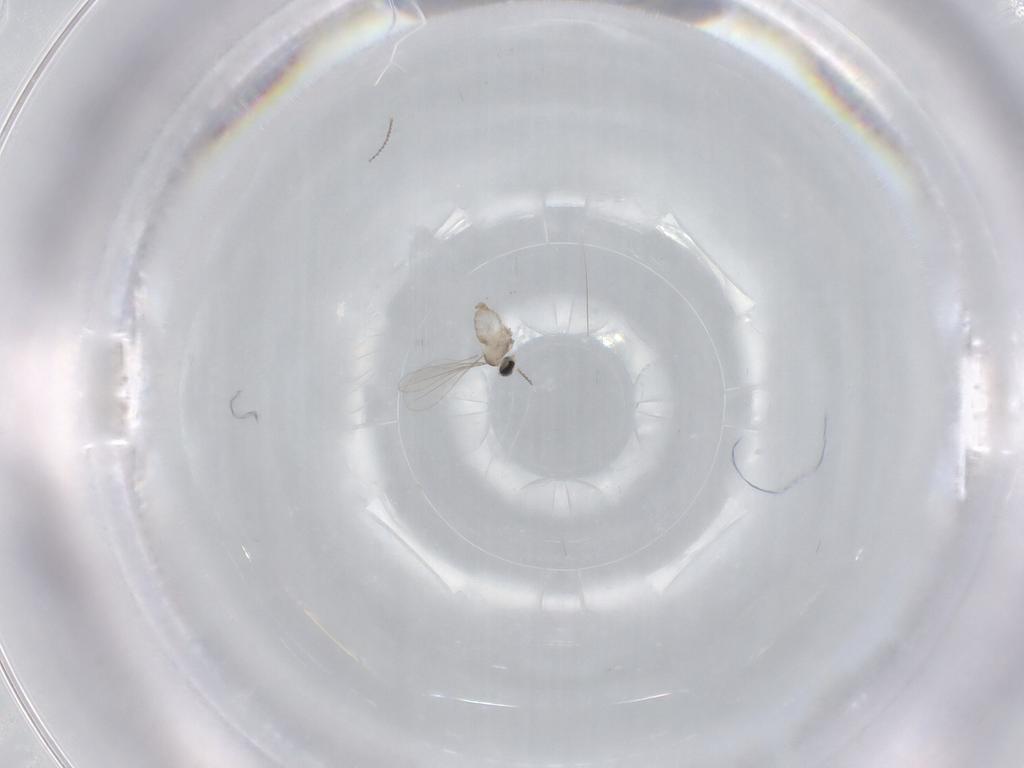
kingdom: Animalia
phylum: Arthropoda
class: Insecta
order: Diptera
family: Cecidomyiidae
